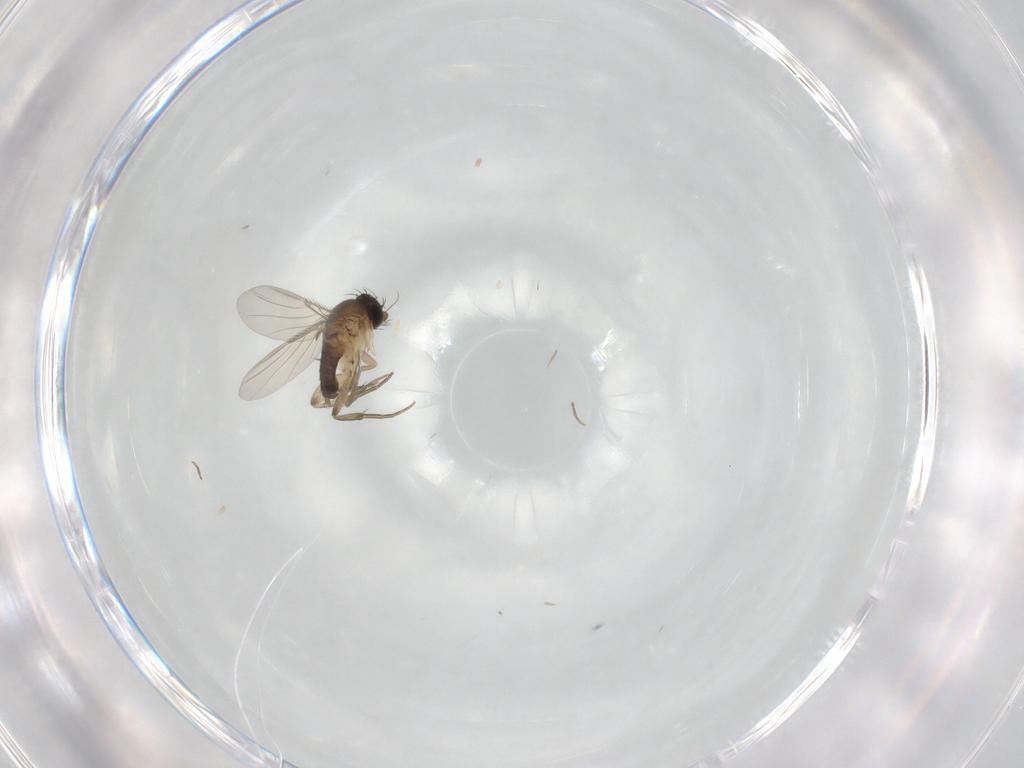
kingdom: Animalia
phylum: Arthropoda
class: Insecta
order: Diptera
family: Phoridae
